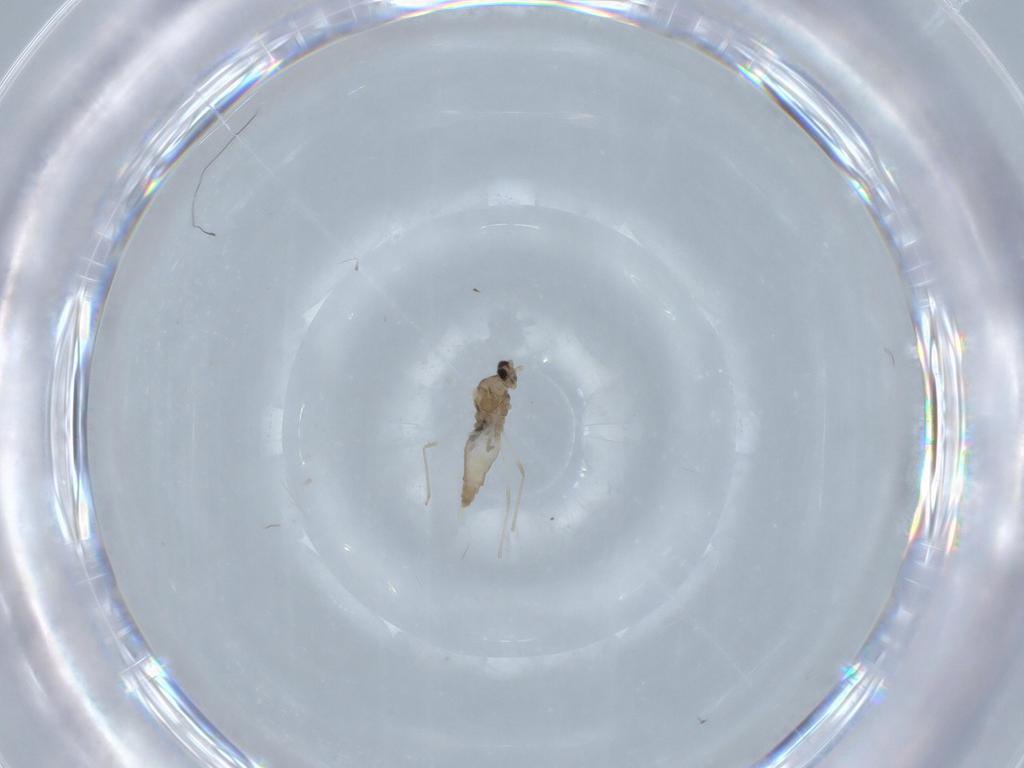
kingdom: Animalia
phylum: Arthropoda
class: Insecta
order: Diptera
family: Cecidomyiidae
